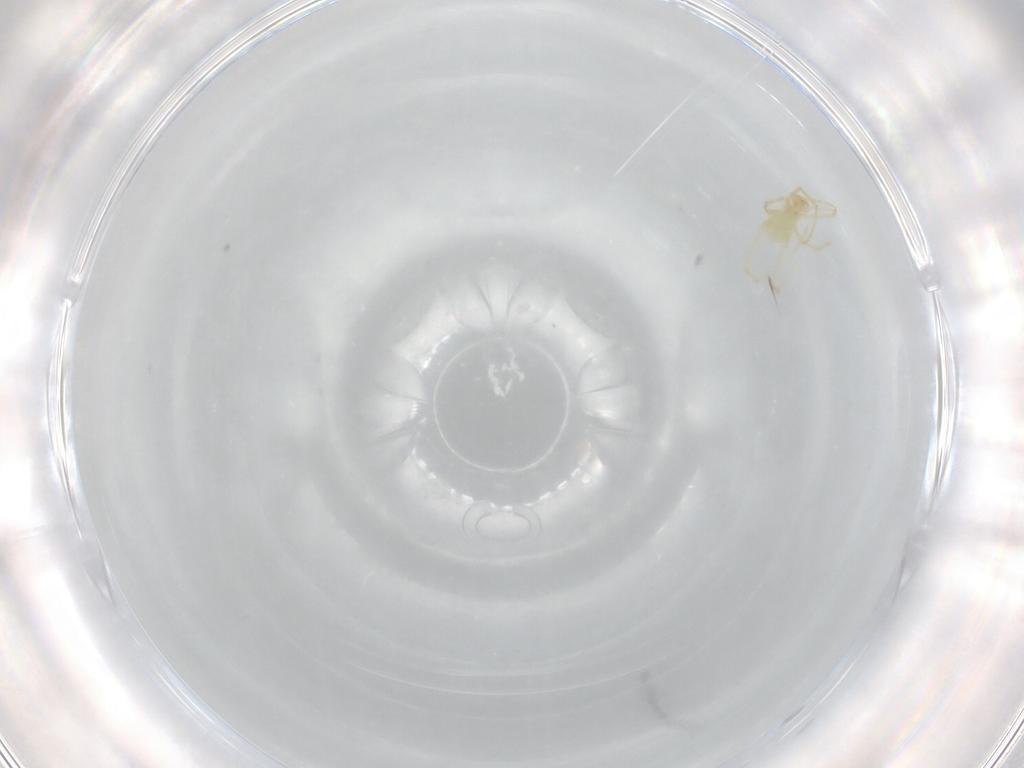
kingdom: Animalia
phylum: Arthropoda
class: Arachnida
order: Trombidiformes
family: Erythraeidae
